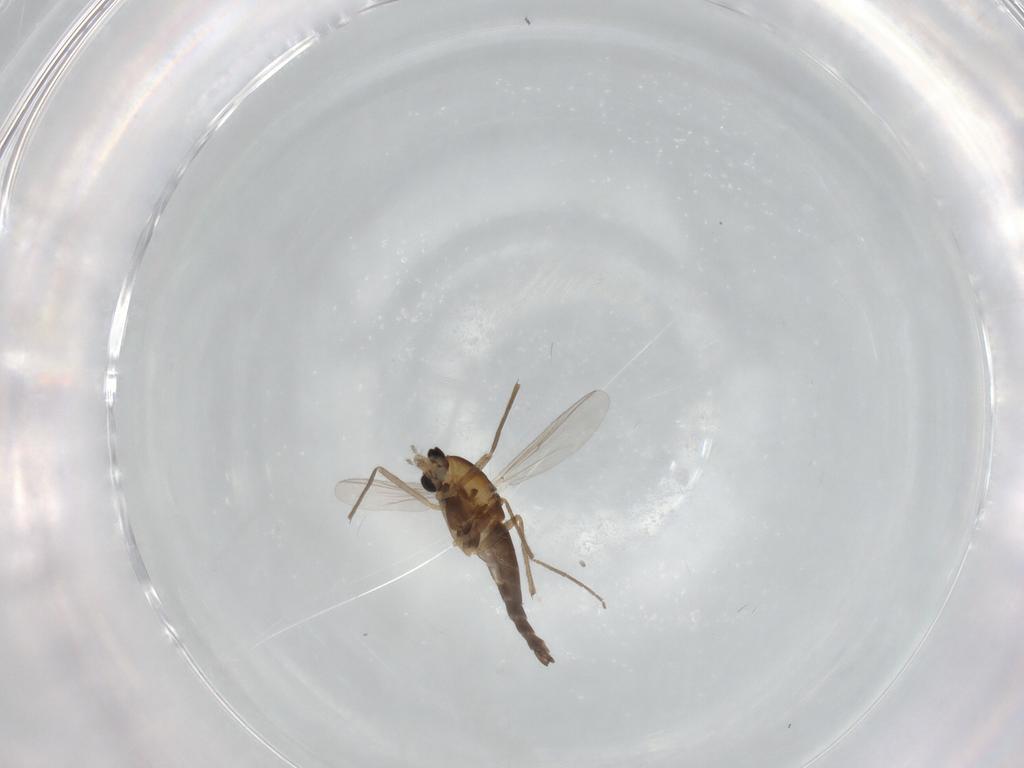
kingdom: Animalia
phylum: Arthropoda
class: Insecta
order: Diptera
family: Chironomidae
